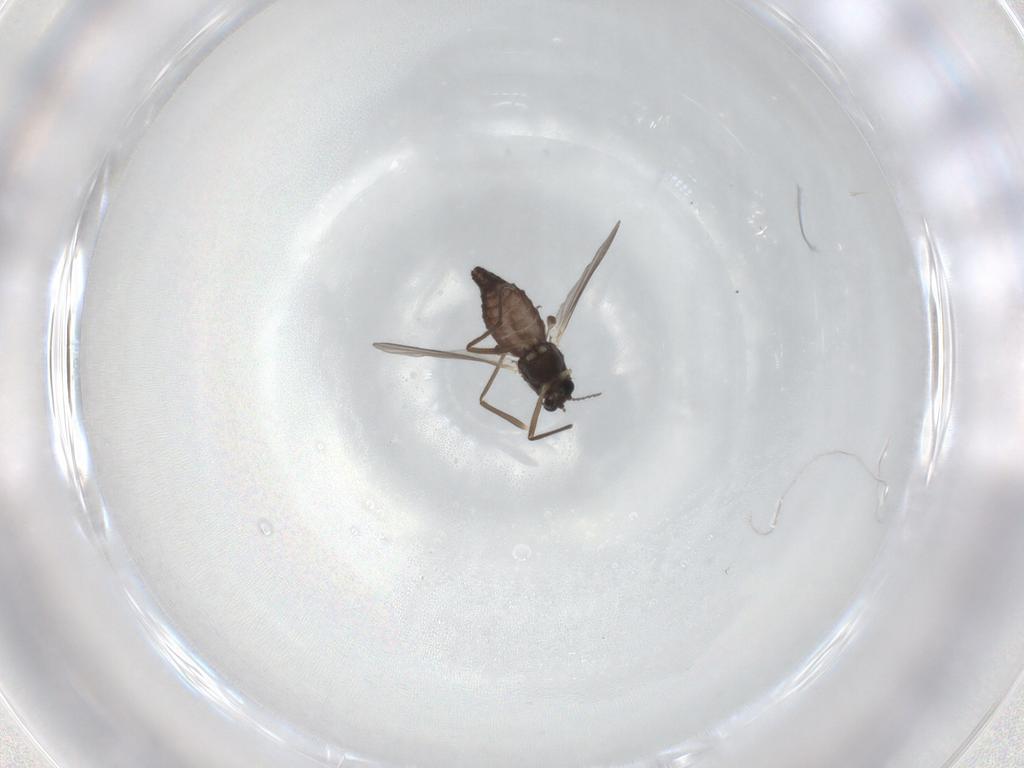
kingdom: Animalia
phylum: Arthropoda
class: Insecta
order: Diptera
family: Chironomidae
